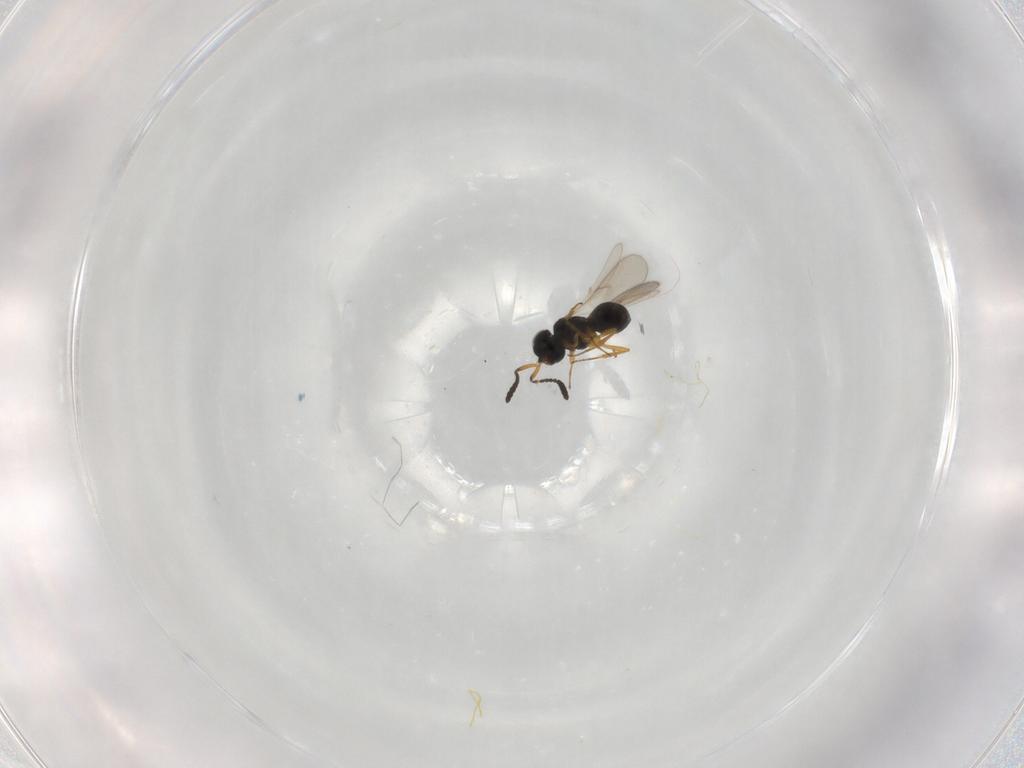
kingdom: Animalia
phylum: Arthropoda
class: Insecta
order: Hymenoptera
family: Scelionidae
